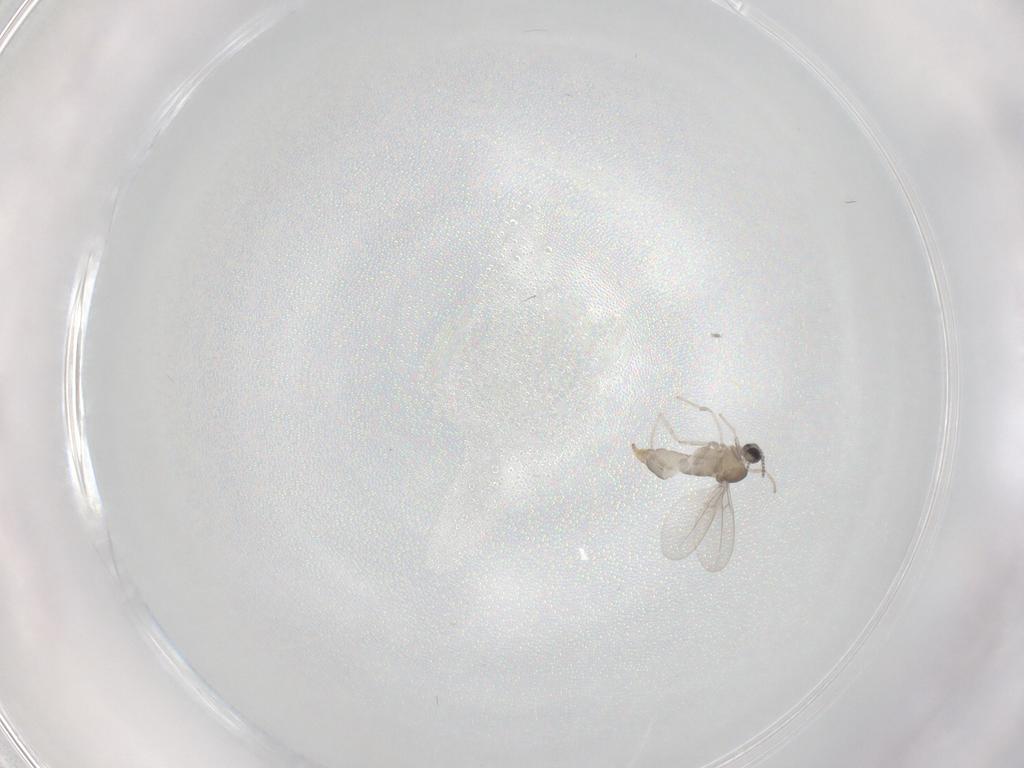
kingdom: Animalia
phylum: Arthropoda
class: Insecta
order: Diptera
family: Cecidomyiidae
